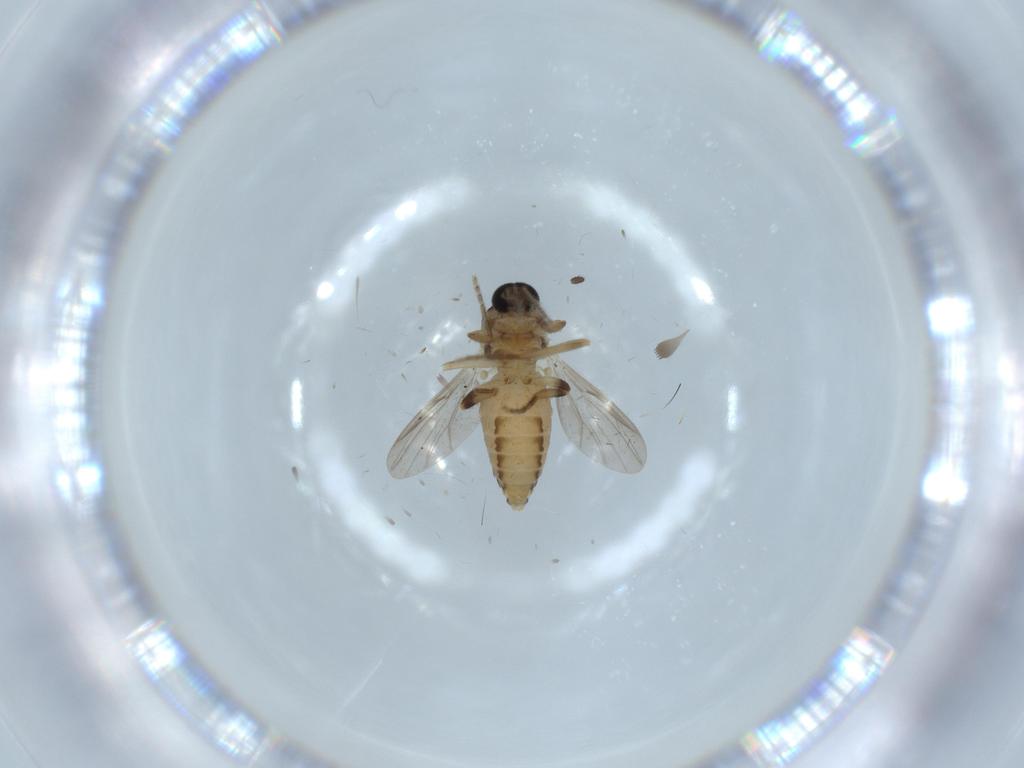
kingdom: Animalia
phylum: Arthropoda
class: Insecta
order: Diptera
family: Ceratopogonidae
